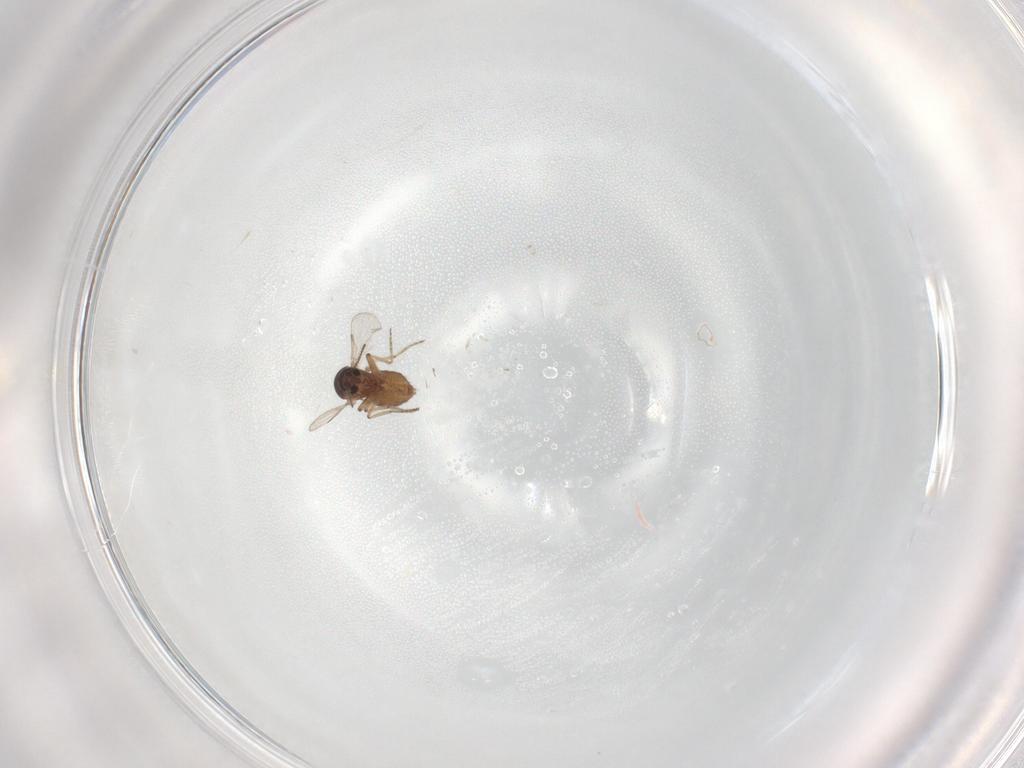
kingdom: Animalia
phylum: Arthropoda
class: Insecta
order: Diptera
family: Ceratopogonidae
